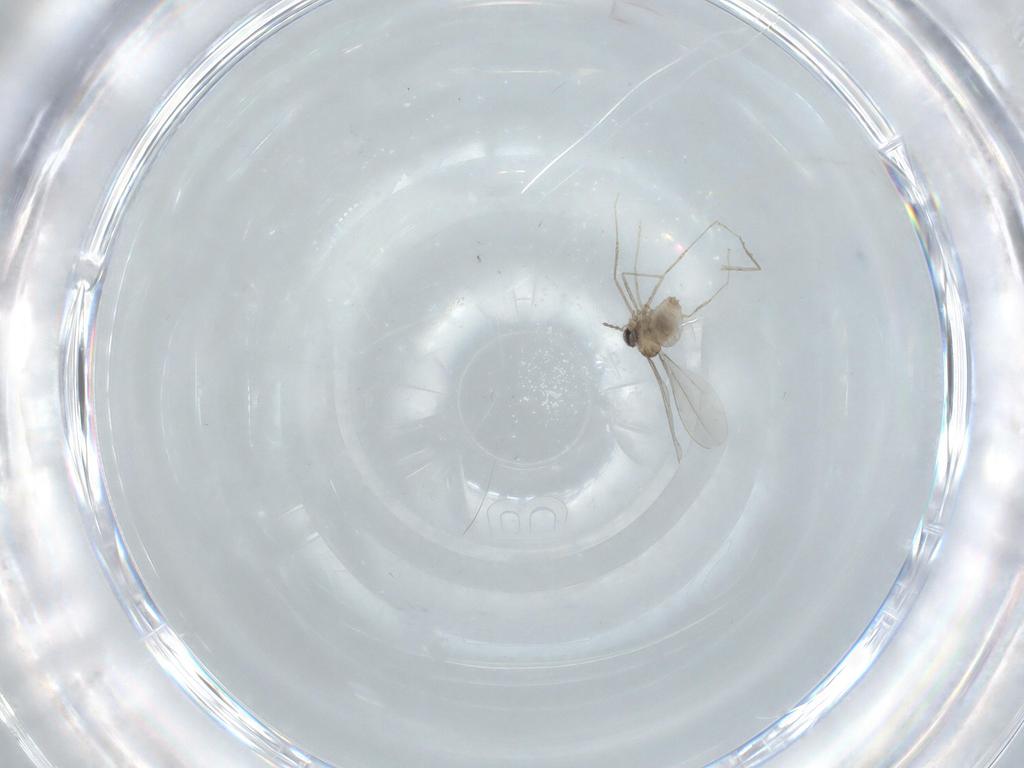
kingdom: Animalia
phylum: Arthropoda
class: Insecta
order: Diptera
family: Cecidomyiidae
